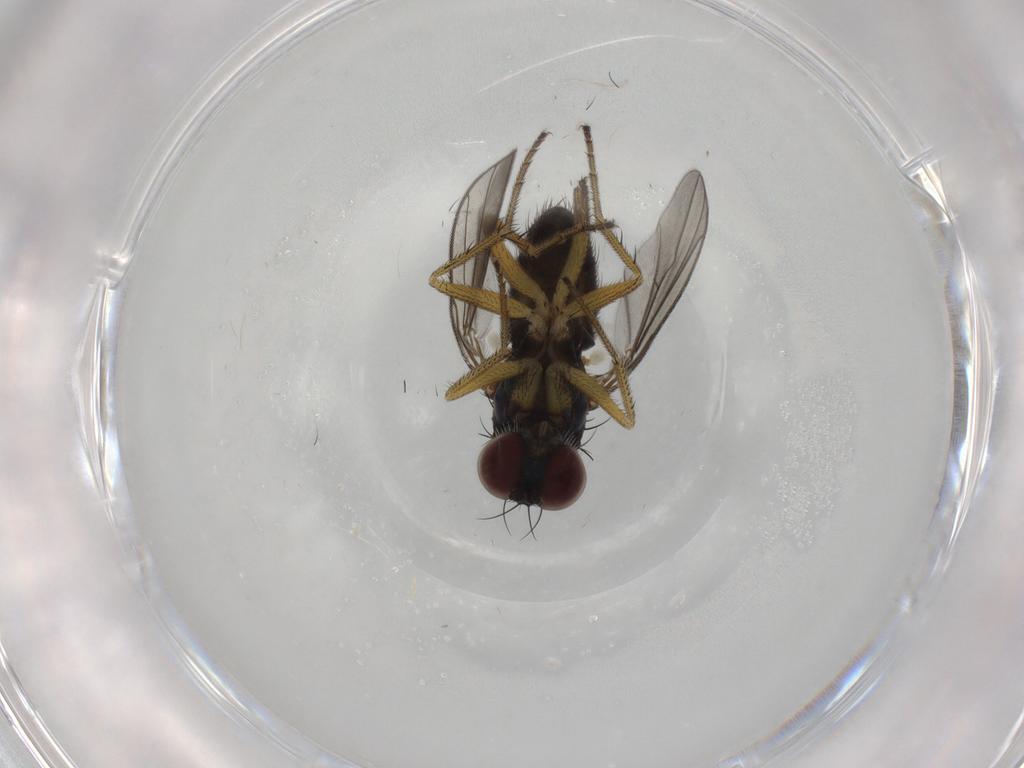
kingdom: Animalia
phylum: Arthropoda
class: Insecta
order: Diptera
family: Dolichopodidae
